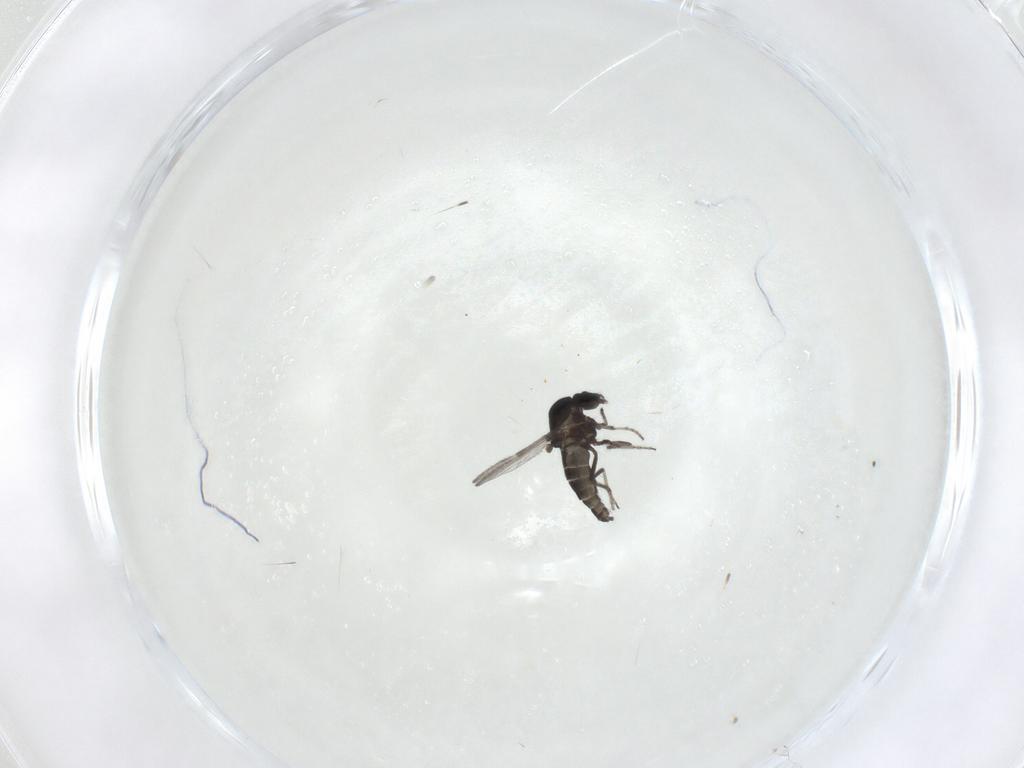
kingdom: Animalia
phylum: Arthropoda
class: Insecta
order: Diptera
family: Ceratopogonidae
